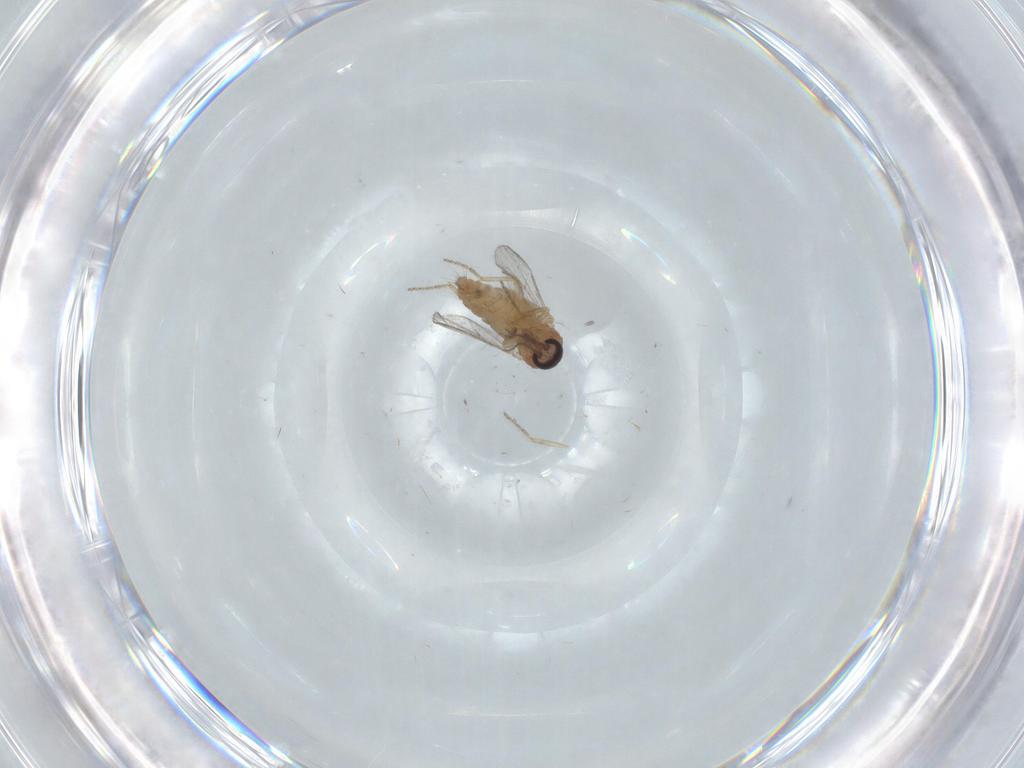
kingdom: Animalia
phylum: Arthropoda
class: Insecta
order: Diptera
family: Ceratopogonidae
